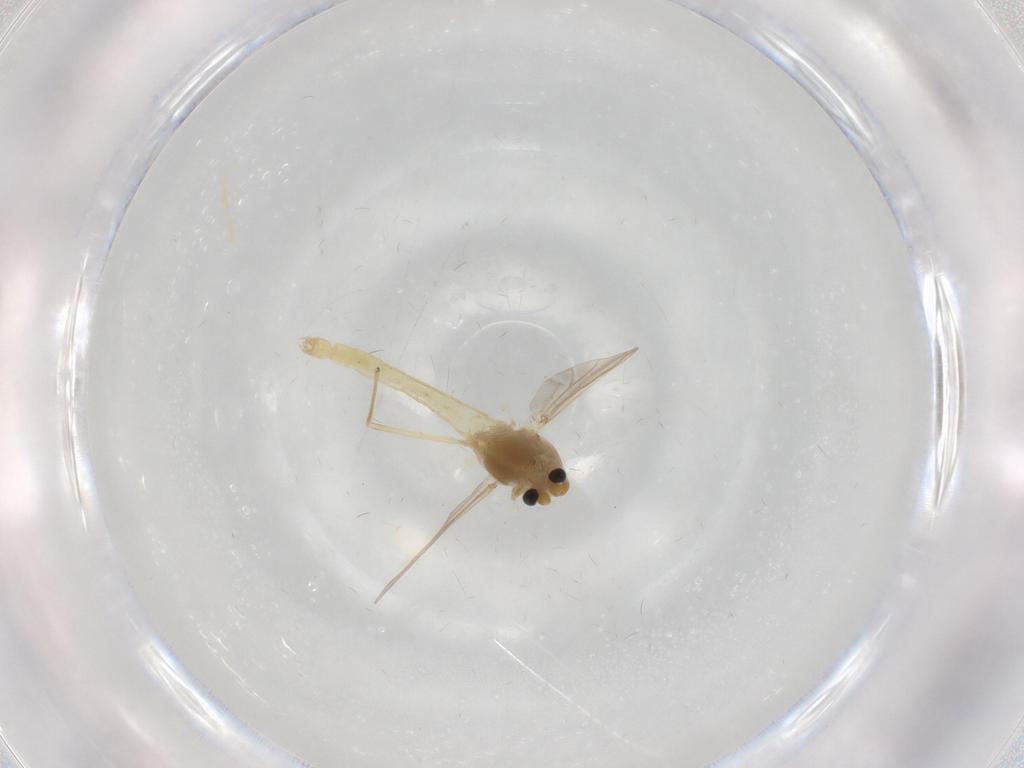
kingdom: Animalia
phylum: Arthropoda
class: Insecta
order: Diptera
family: Chironomidae
